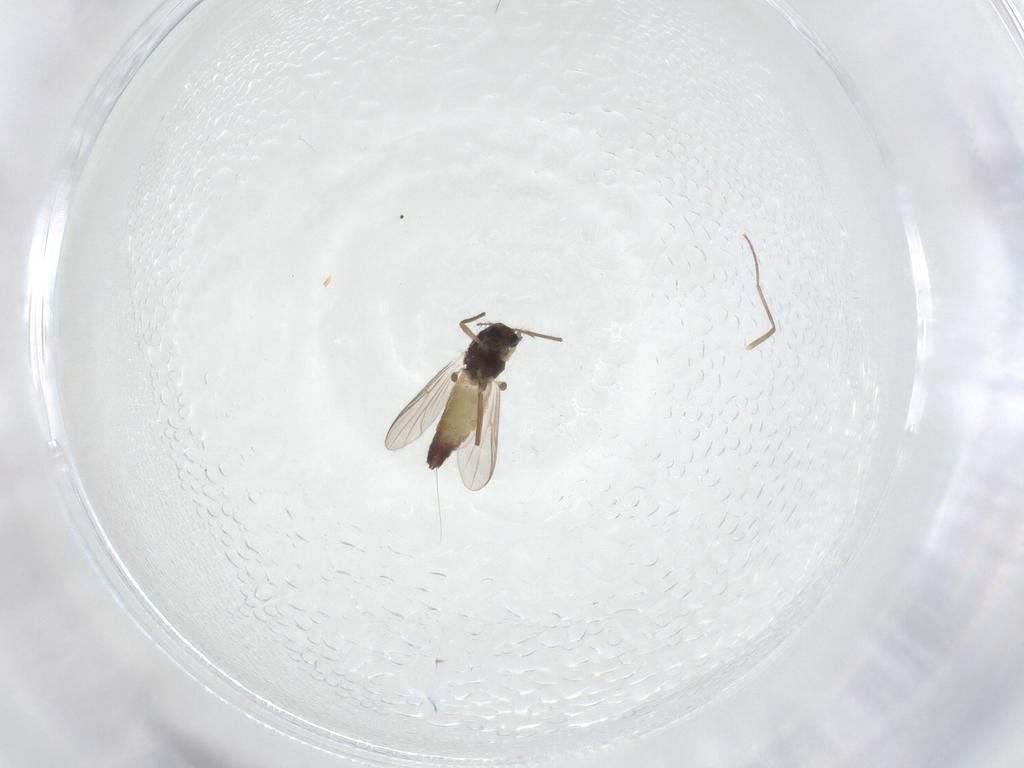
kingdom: Animalia
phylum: Arthropoda
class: Insecta
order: Diptera
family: Chironomidae
